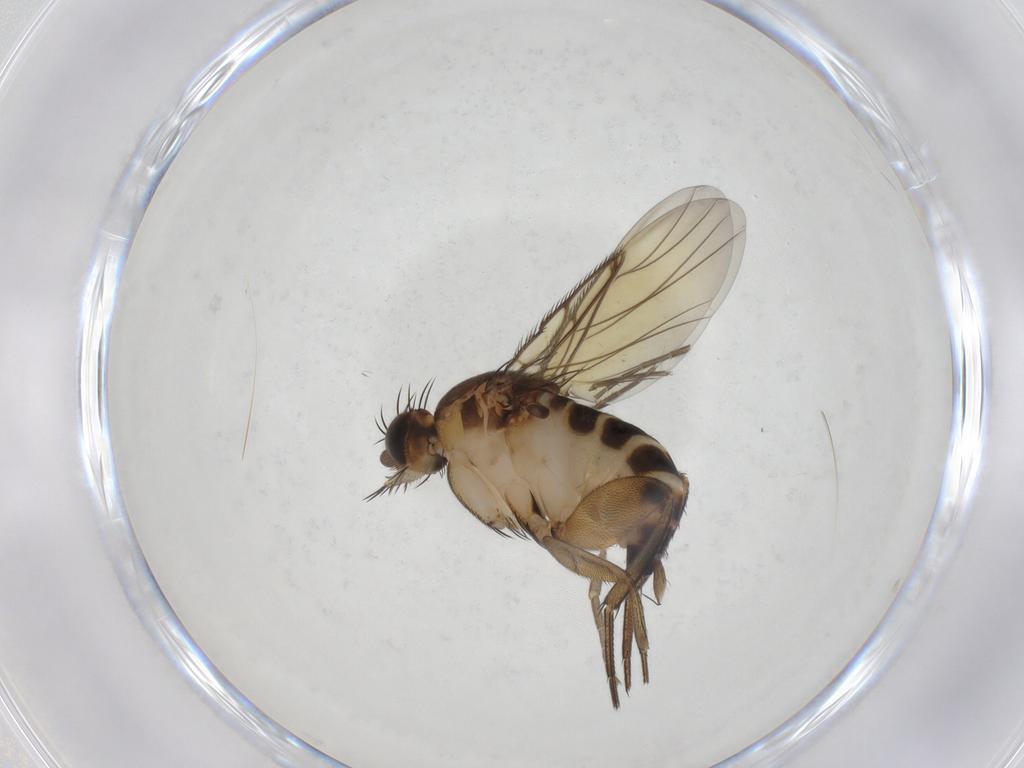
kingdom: Animalia
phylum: Arthropoda
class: Insecta
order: Diptera
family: Phoridae
